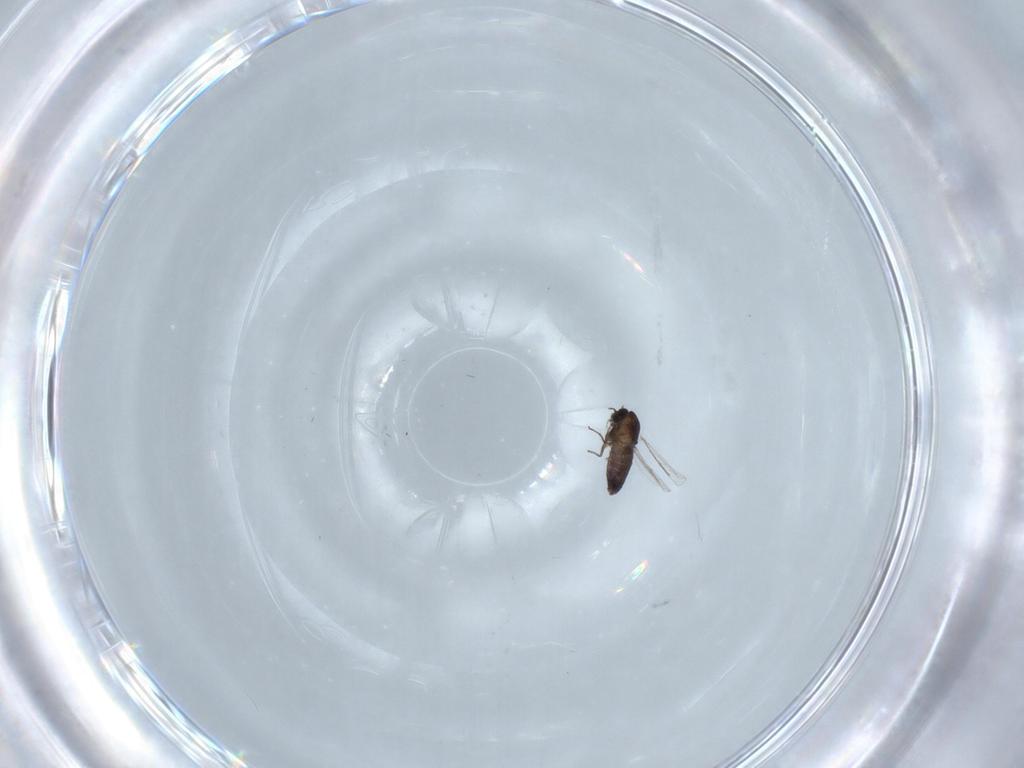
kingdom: Animalia
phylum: Arthropoda
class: Insecta
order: Diptera
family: Chironomidae
